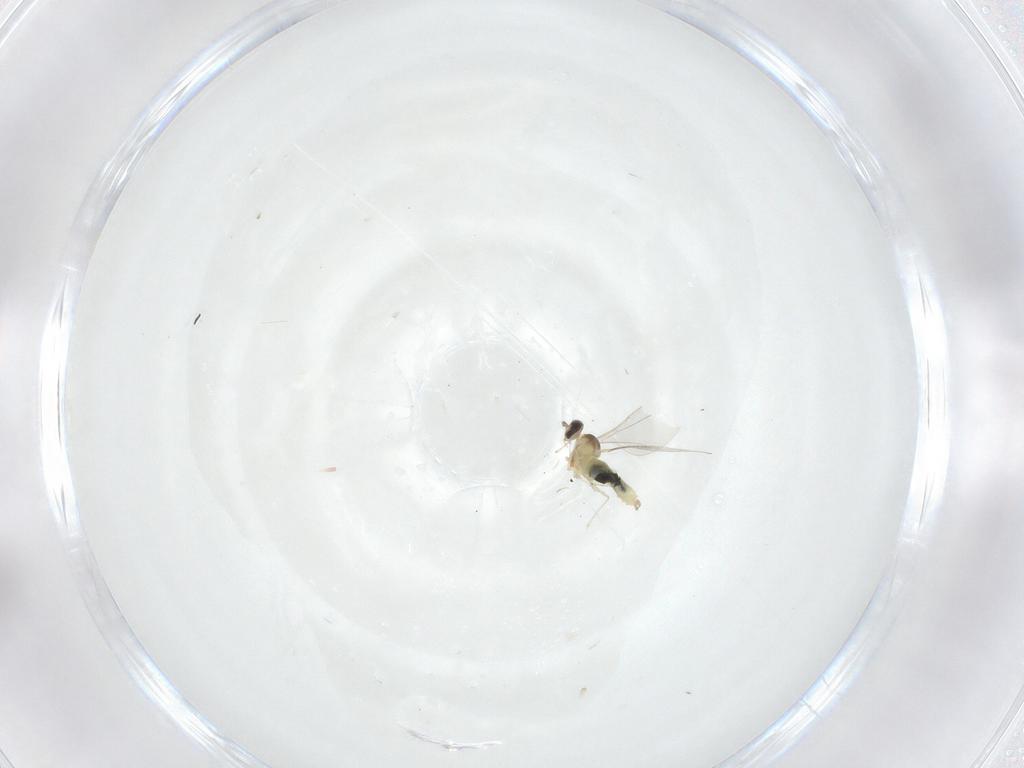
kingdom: Animalia
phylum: Arthropoda
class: Insecta
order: Diptera
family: Cecidomyiidae
